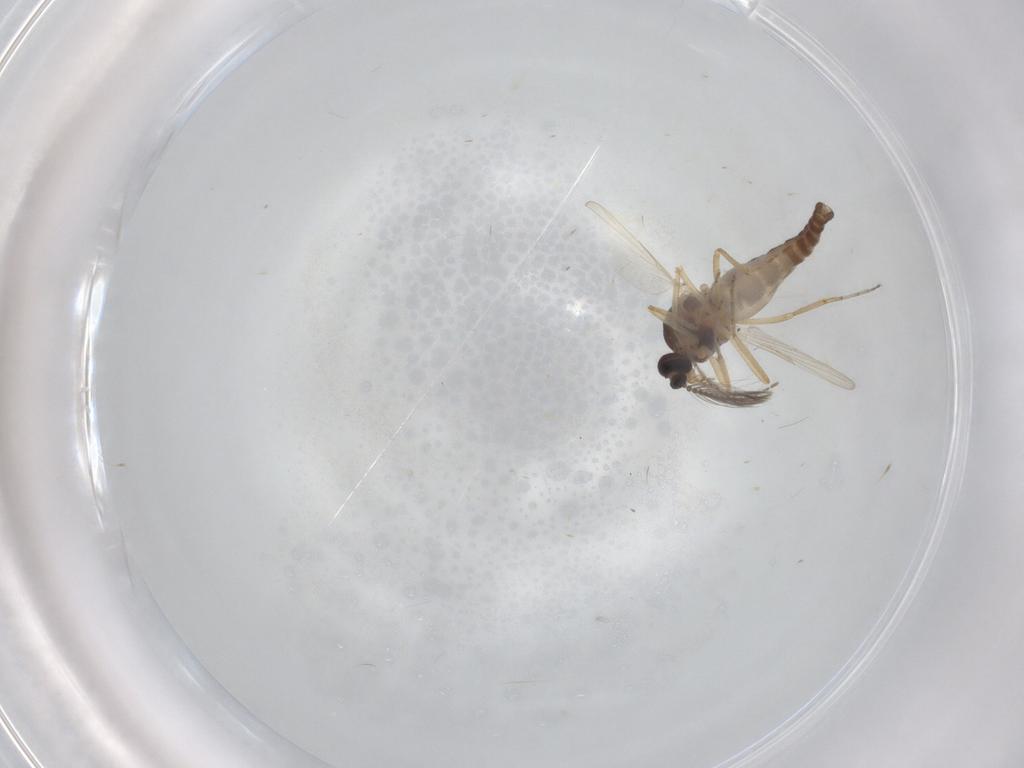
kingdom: Animalia
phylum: Arthropoda
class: Insecta
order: Diptera
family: Ceratopogonidae
